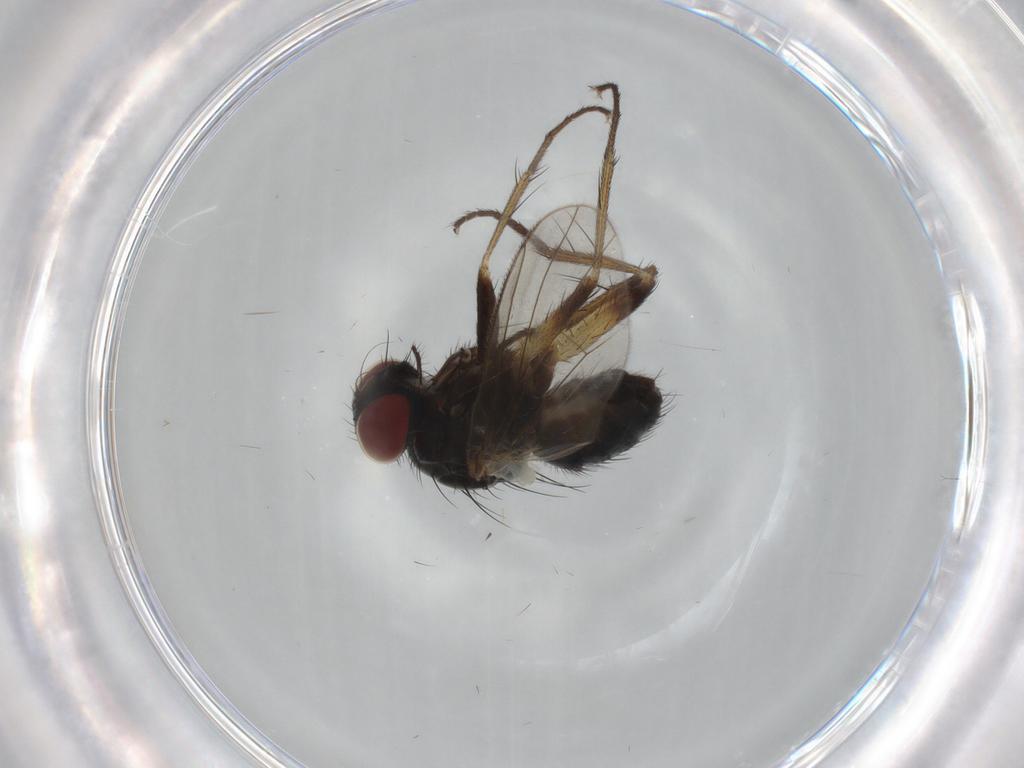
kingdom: Animalia
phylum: Arthropoda
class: Insecta
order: Diptera
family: Muscidae
